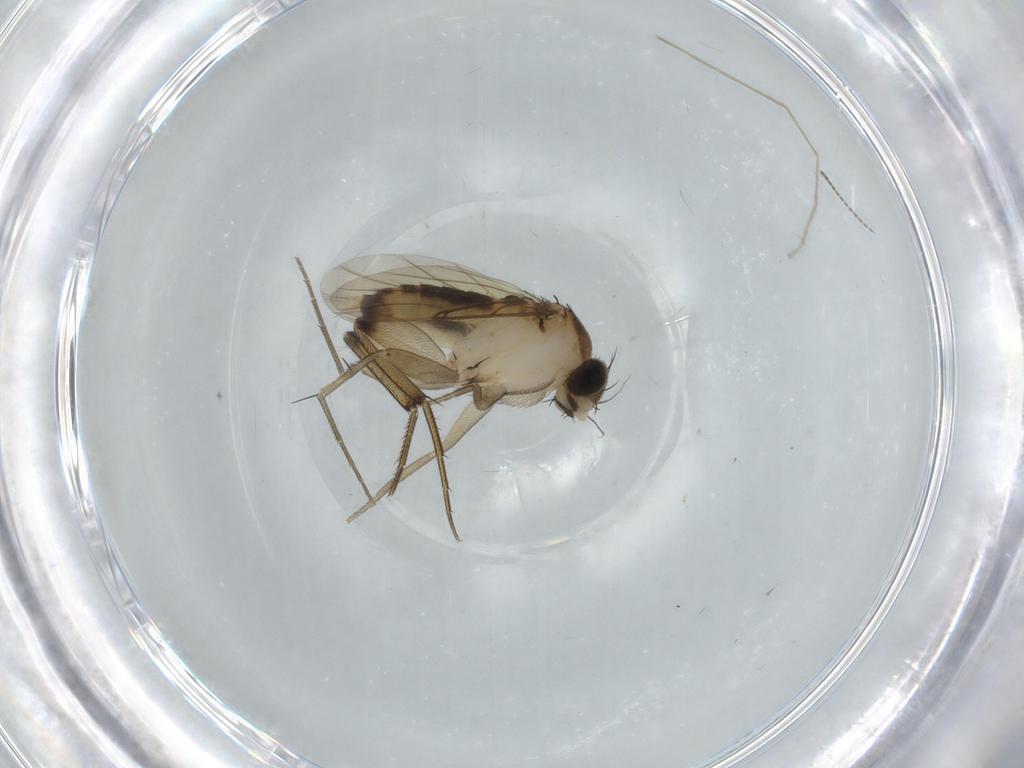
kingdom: Animalia
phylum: Arthropoda
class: Insecta
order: Diptera
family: Phoridae
